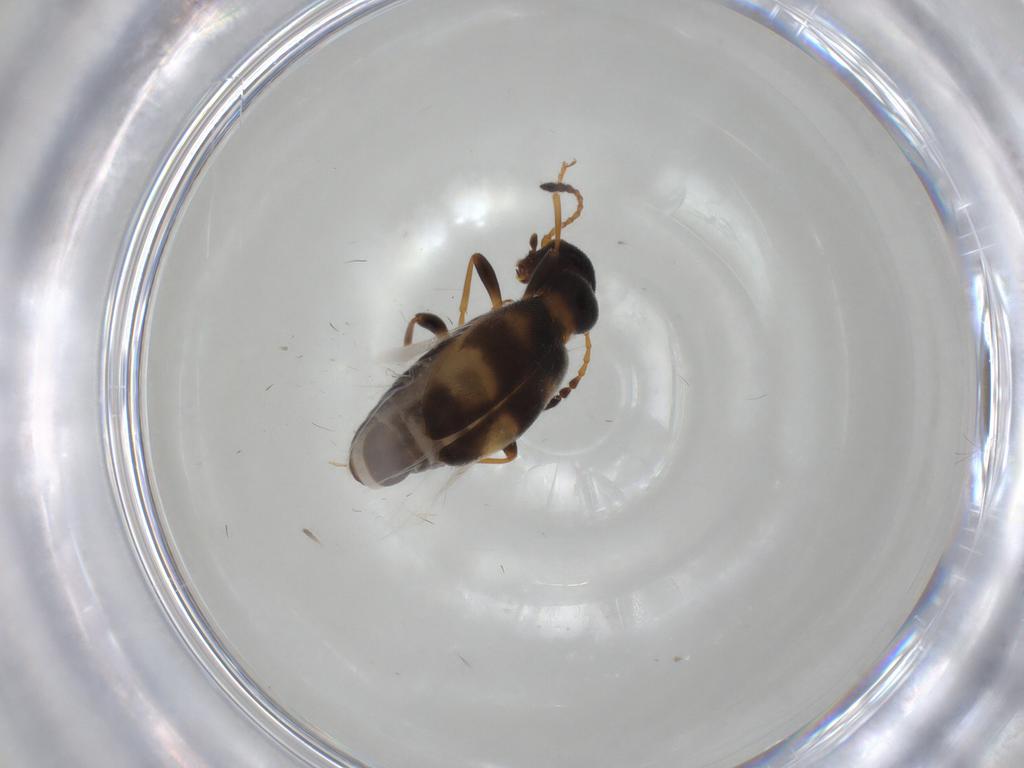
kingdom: Animalia
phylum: Arthropoda
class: Insecta
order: Coleoptera
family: Anthicidae
